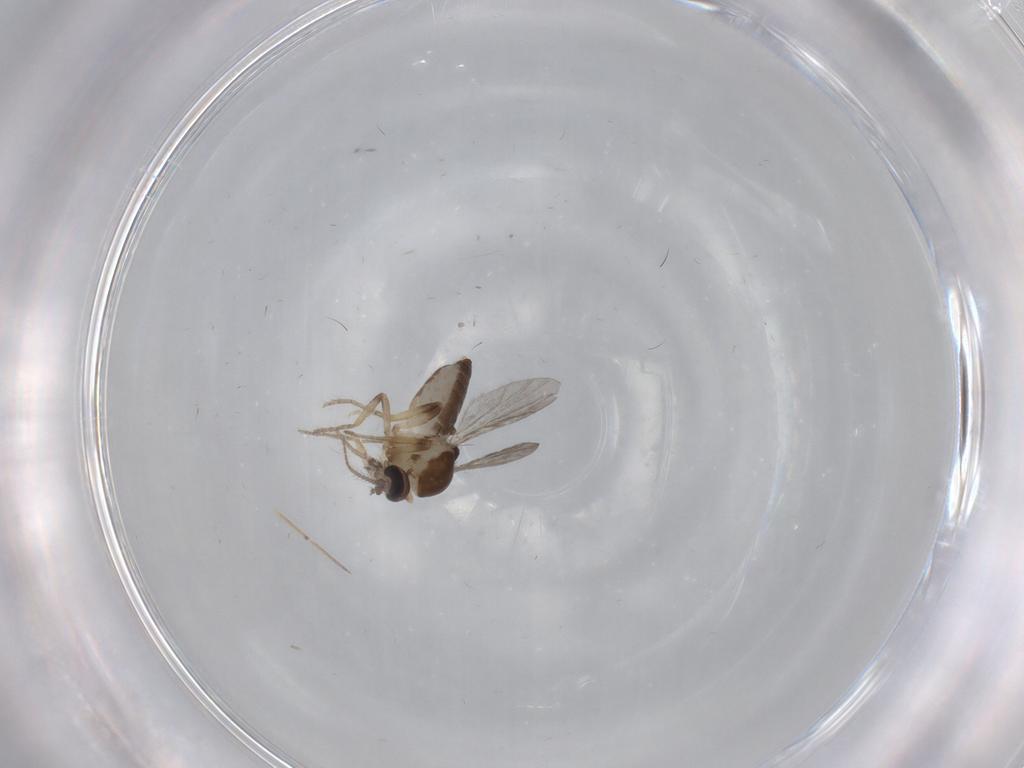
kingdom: Animalia
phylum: Arthropoda
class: Insecta
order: Diptera
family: Ceratopogonidae
